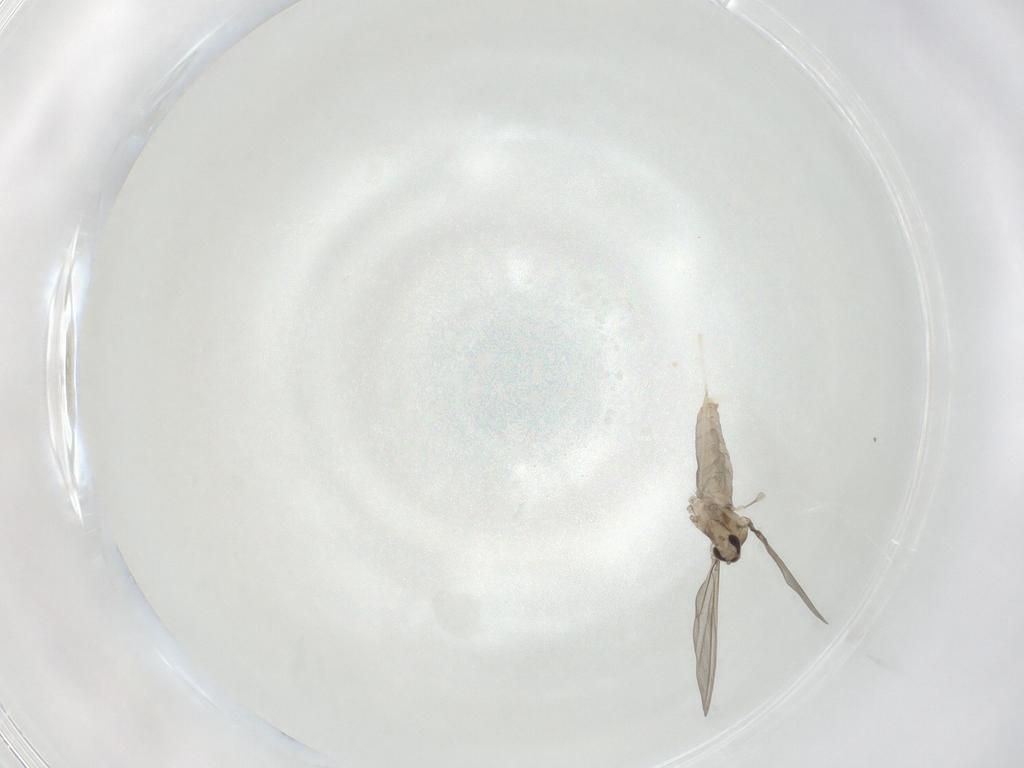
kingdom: Animalia
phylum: Arthropoda
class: Insecta
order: Diptera
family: Cecidomyiidae
